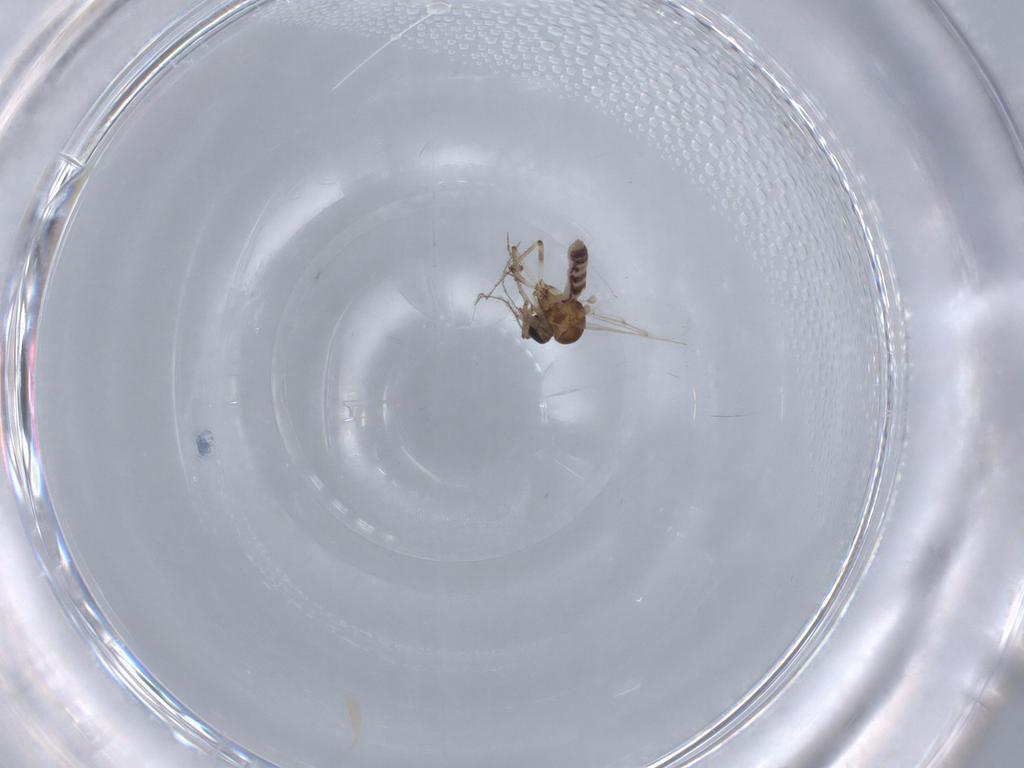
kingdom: Animalia
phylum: Arthropoda
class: Insecta
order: Diptera
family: Cecidomyiidae
